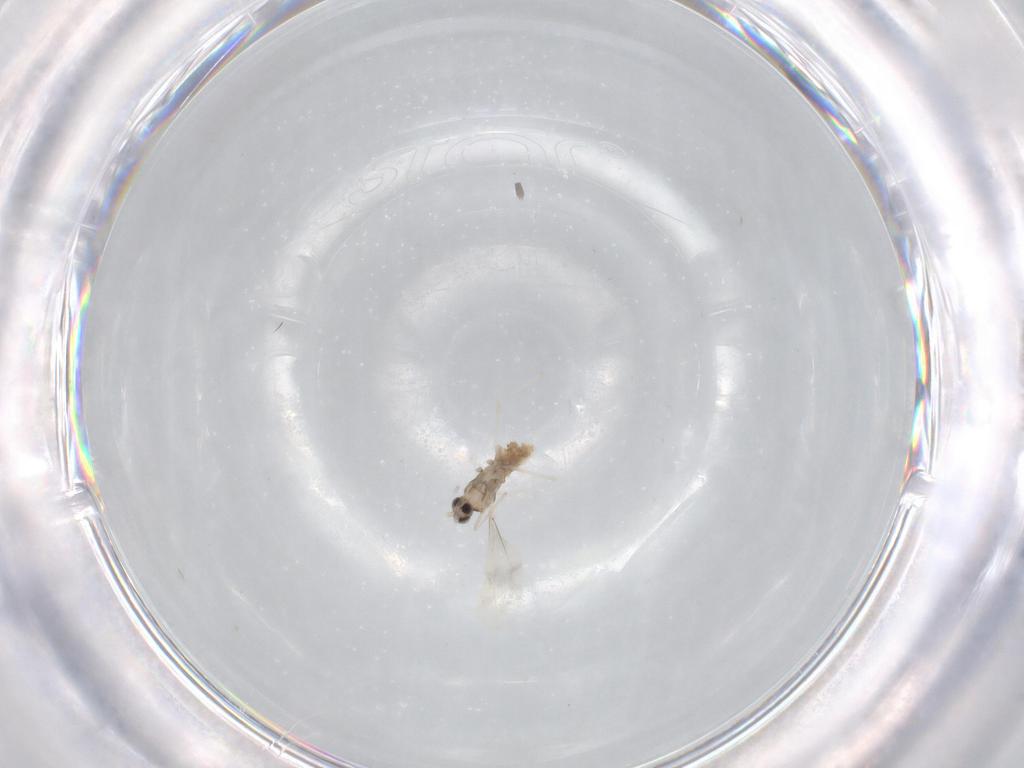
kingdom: Animalia
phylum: Arthropoda
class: Insecta
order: Diptera
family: Cecidomyiidae
